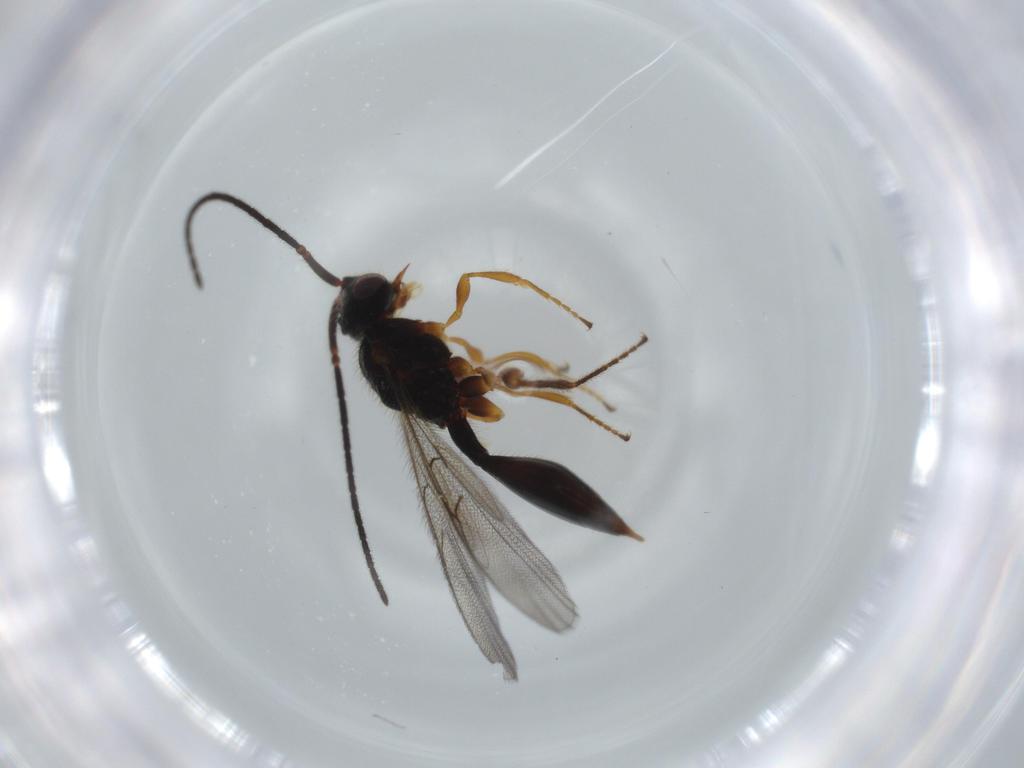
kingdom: Animalia
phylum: Arthropoda
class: Insecta
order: Hymenoptera
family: Diapriidae
